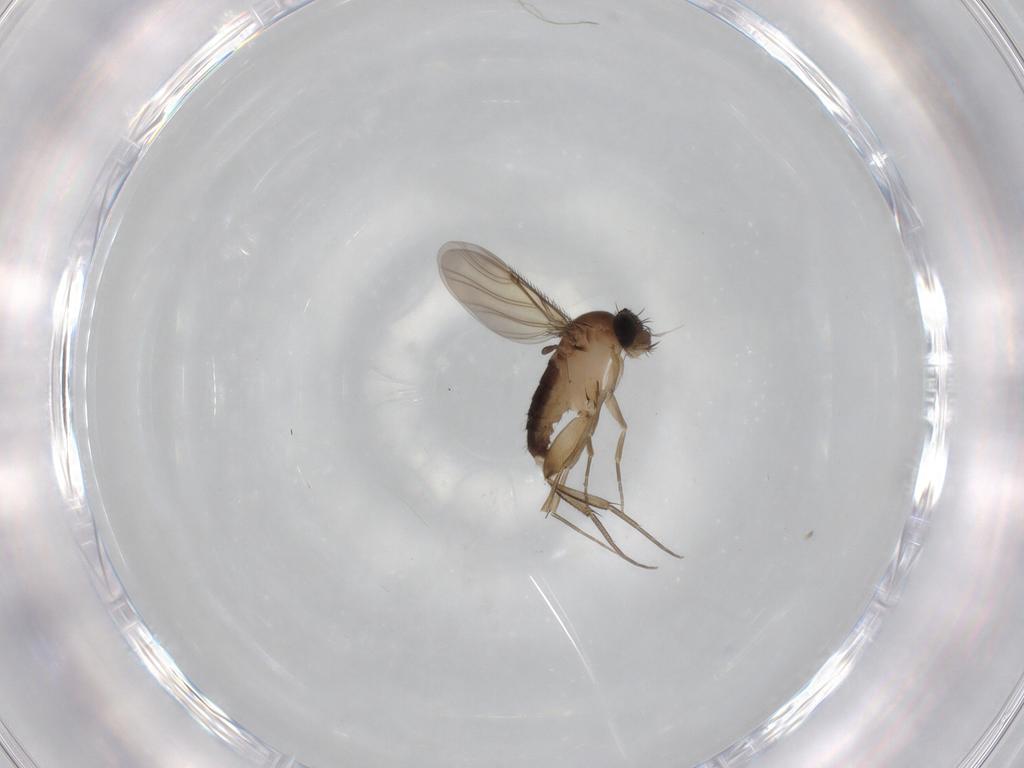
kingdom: Animalia
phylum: Arthropoda
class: Insecta
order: Diptera
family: Phoridae
